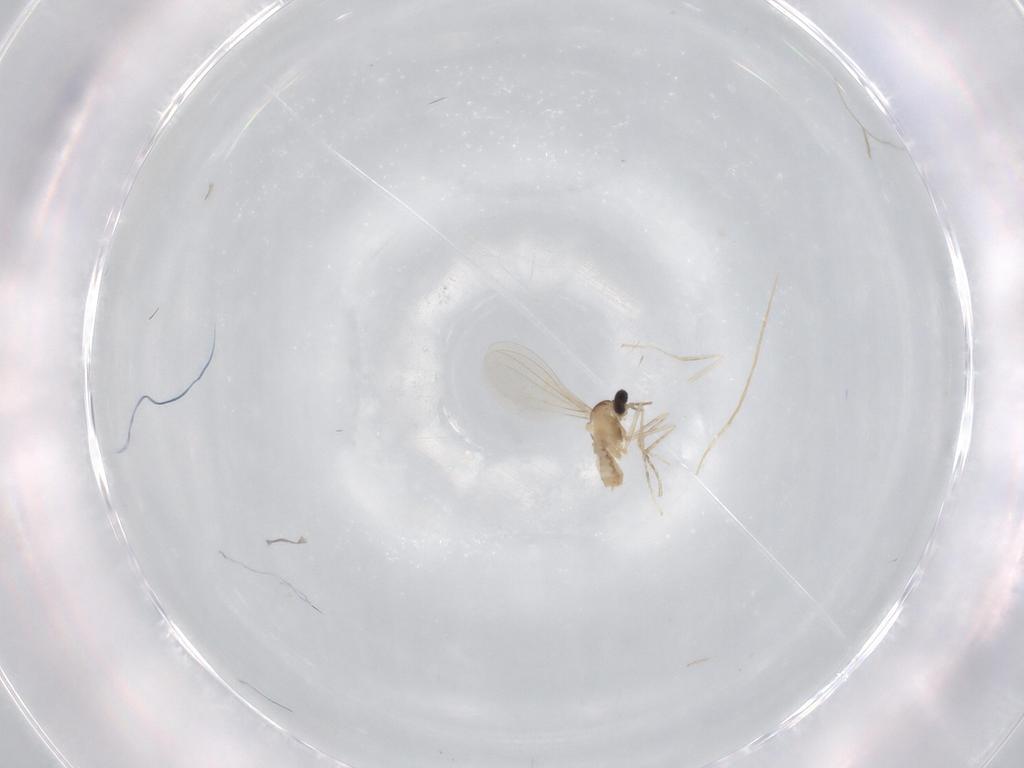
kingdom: Animalia
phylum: Arthropoda
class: Insecta
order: Diptera
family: Cecidomyiidae
